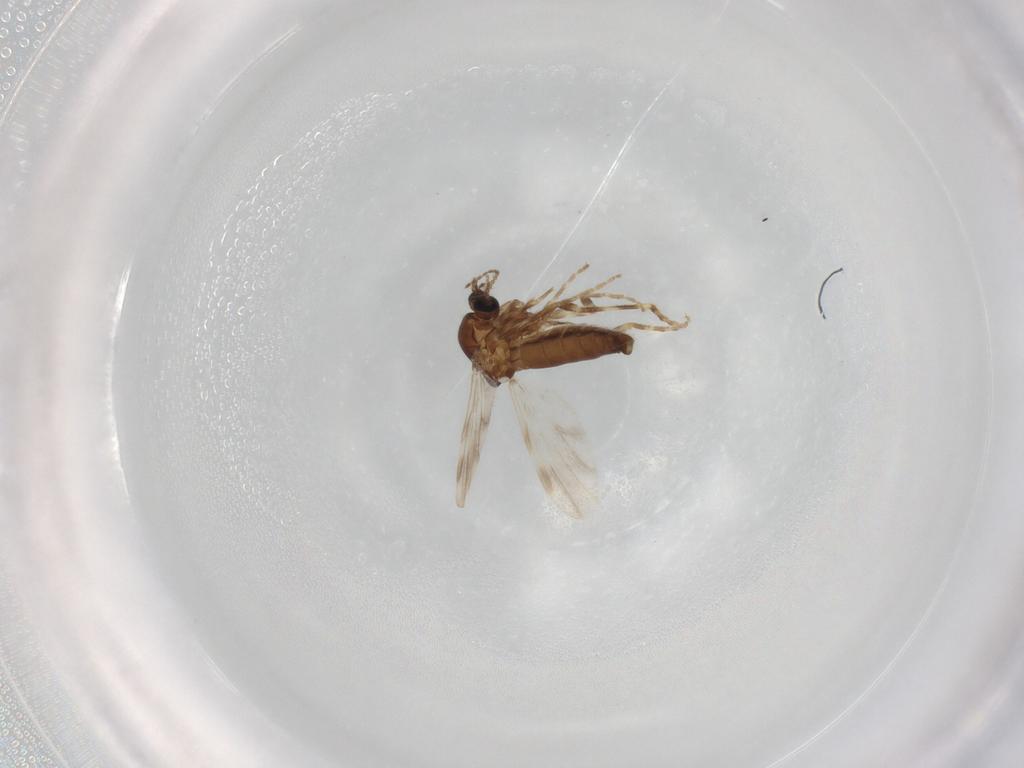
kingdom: Animalia
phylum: Arthropoda
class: Insecta
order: Diptera
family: Ceratopogonidae
